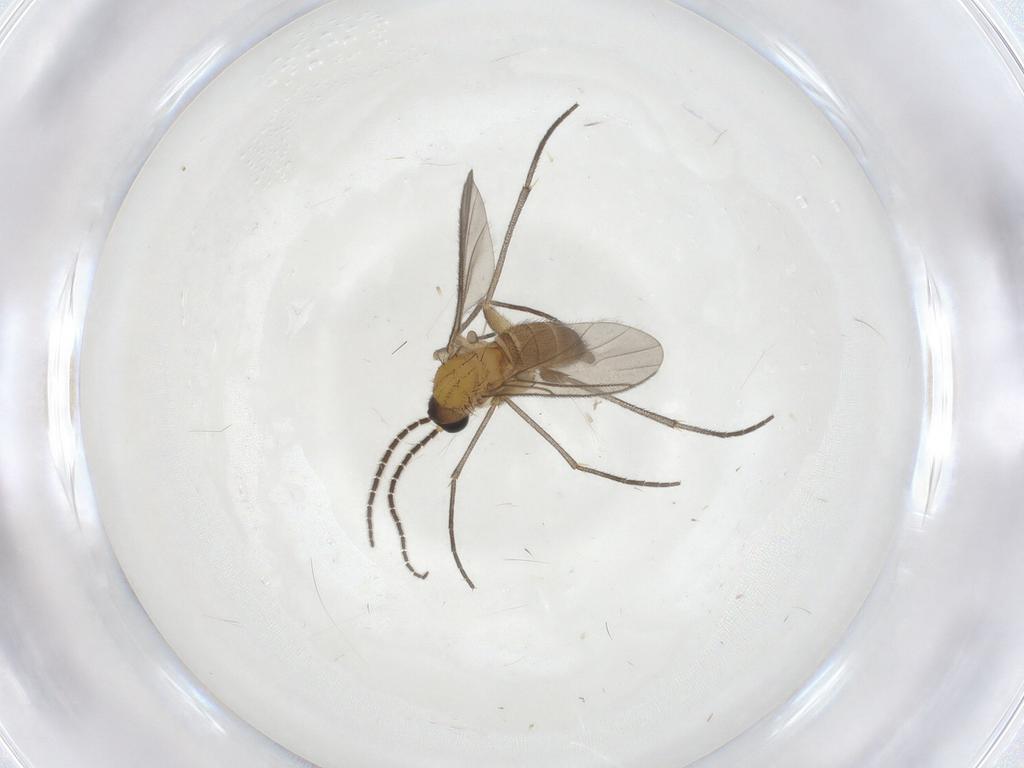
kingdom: Animalia
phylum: Arthropoda
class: Insecta
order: Diptera
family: Sciaridae
